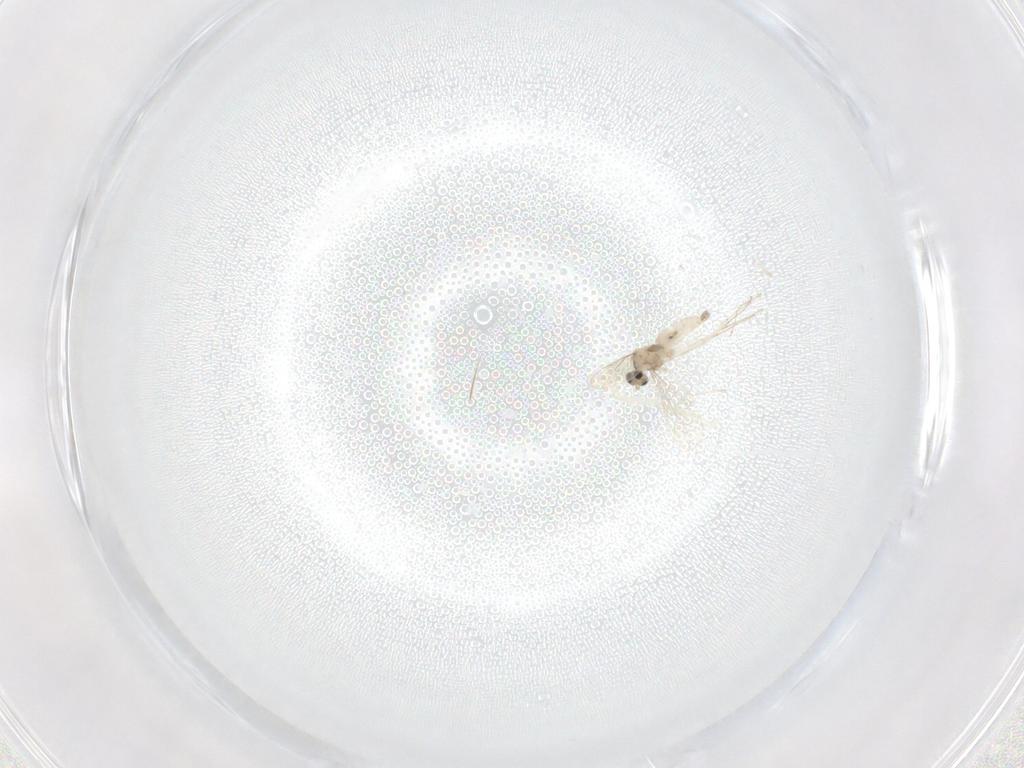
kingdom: Animalia
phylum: Arthropoda
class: Insecta
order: Diptera
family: Cecidomyiidae
